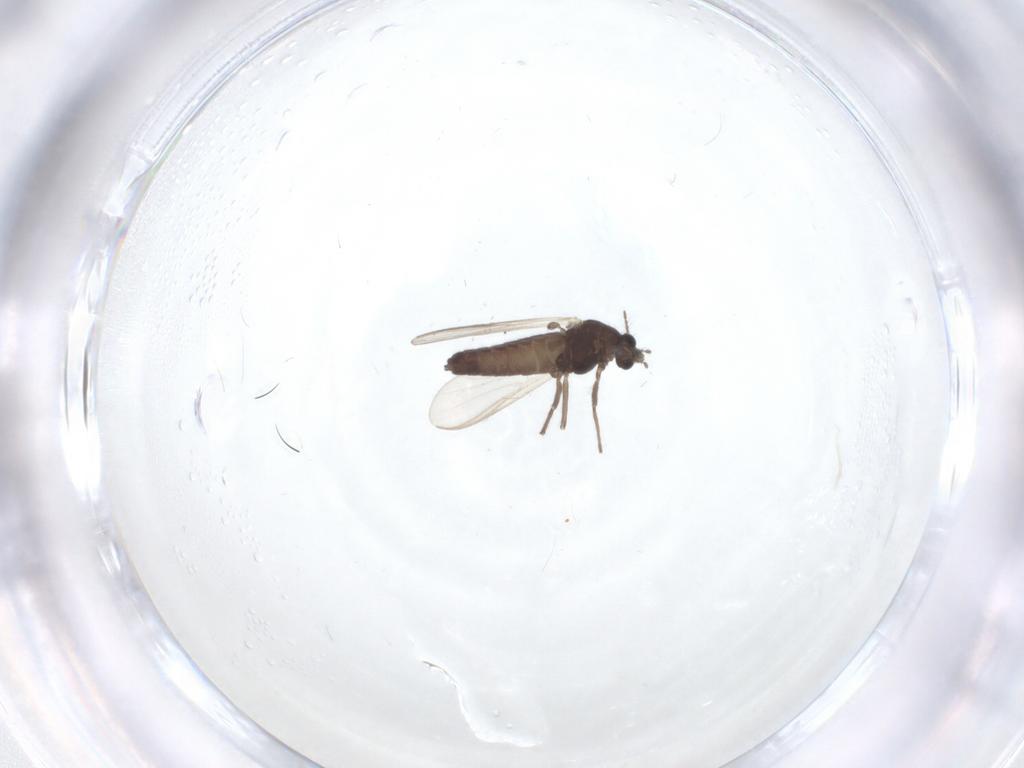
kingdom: Animalia
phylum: Arthropoda
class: Insecta
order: Diptera
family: Chironomidae
